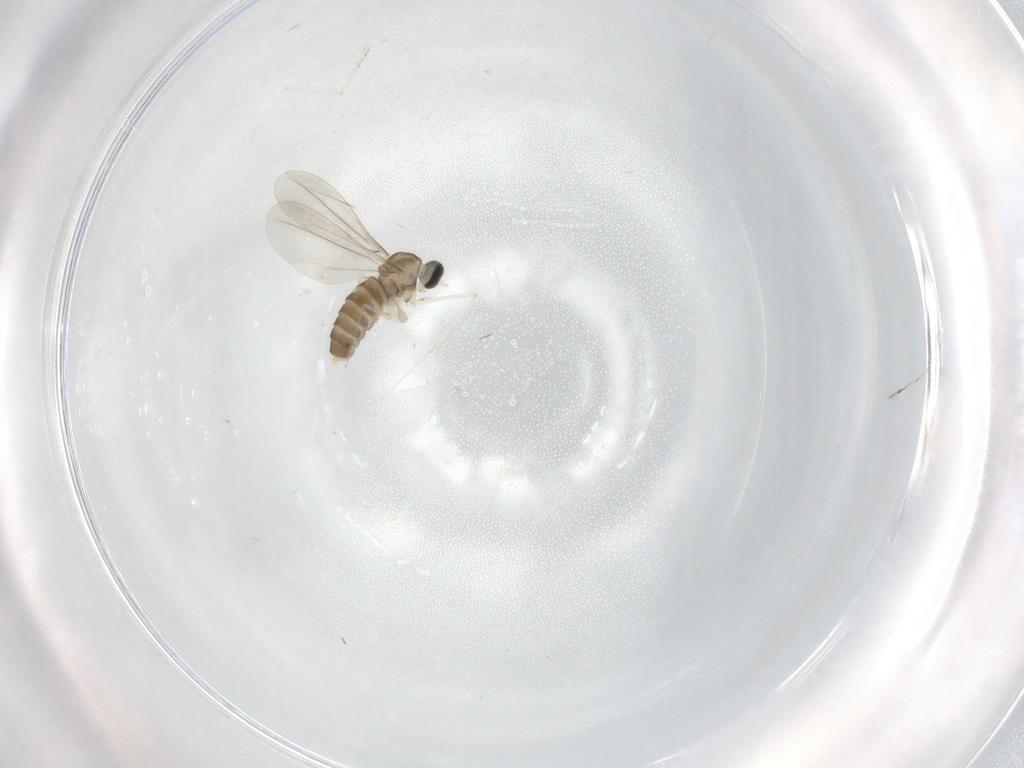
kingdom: Animalia
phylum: Arthropoda
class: Insecta
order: Diptera
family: Cecidomyiidae
